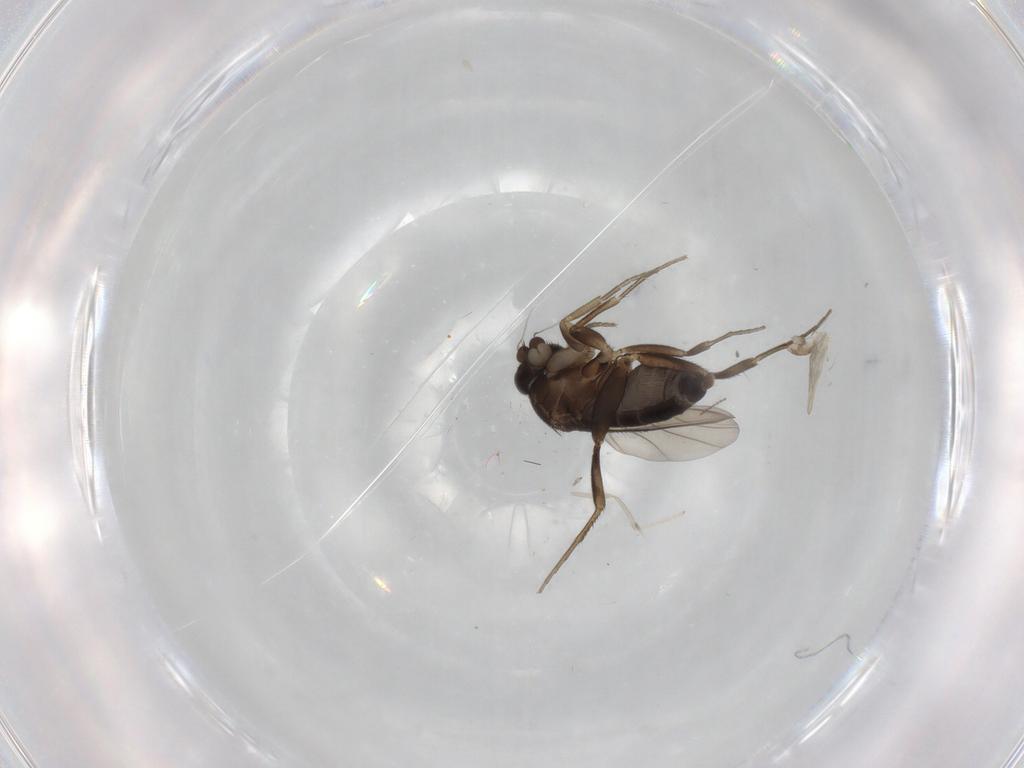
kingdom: Animalia
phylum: Arthropoda
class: Insecta
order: Diptera
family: Phoridae
